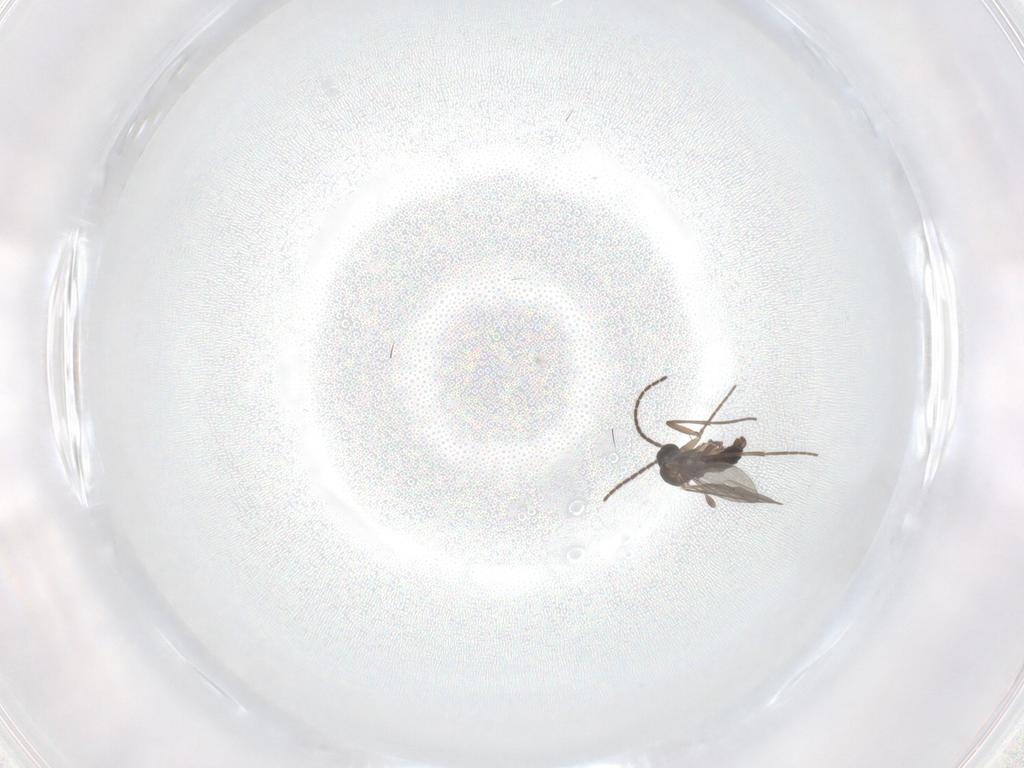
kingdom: Animalia
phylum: Arthropoda
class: Insecta
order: Diptera
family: Sciaridae
